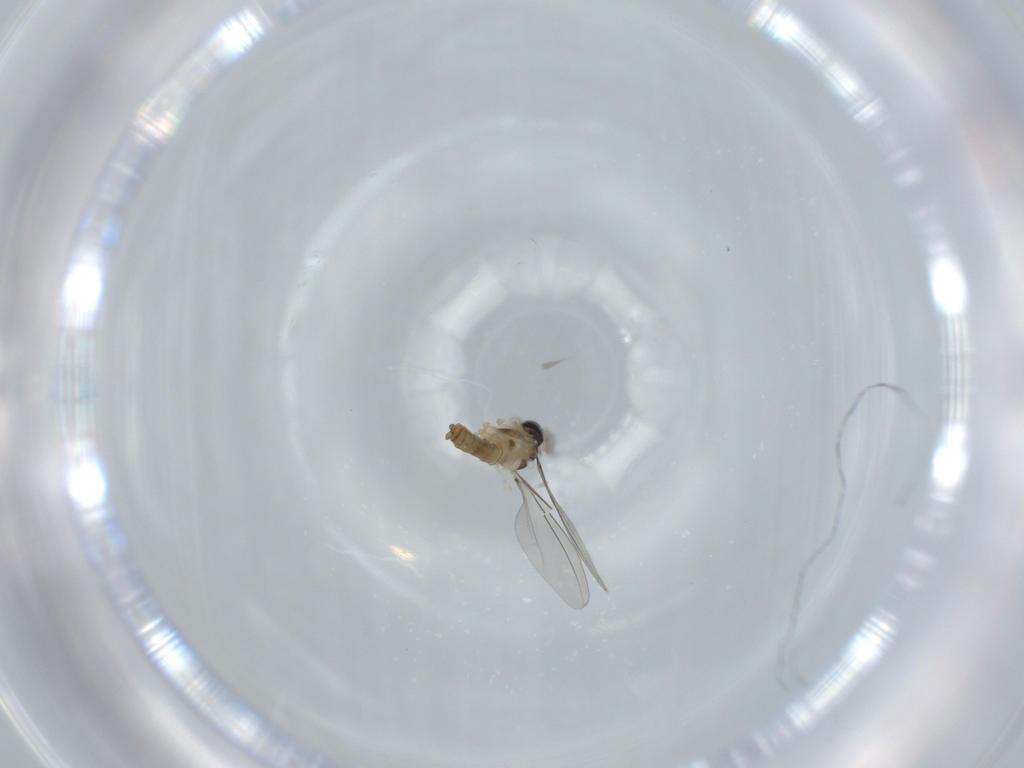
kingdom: Animalia
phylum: Arthropoda
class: Insecta
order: Diptera
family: Cecidomyiidae
